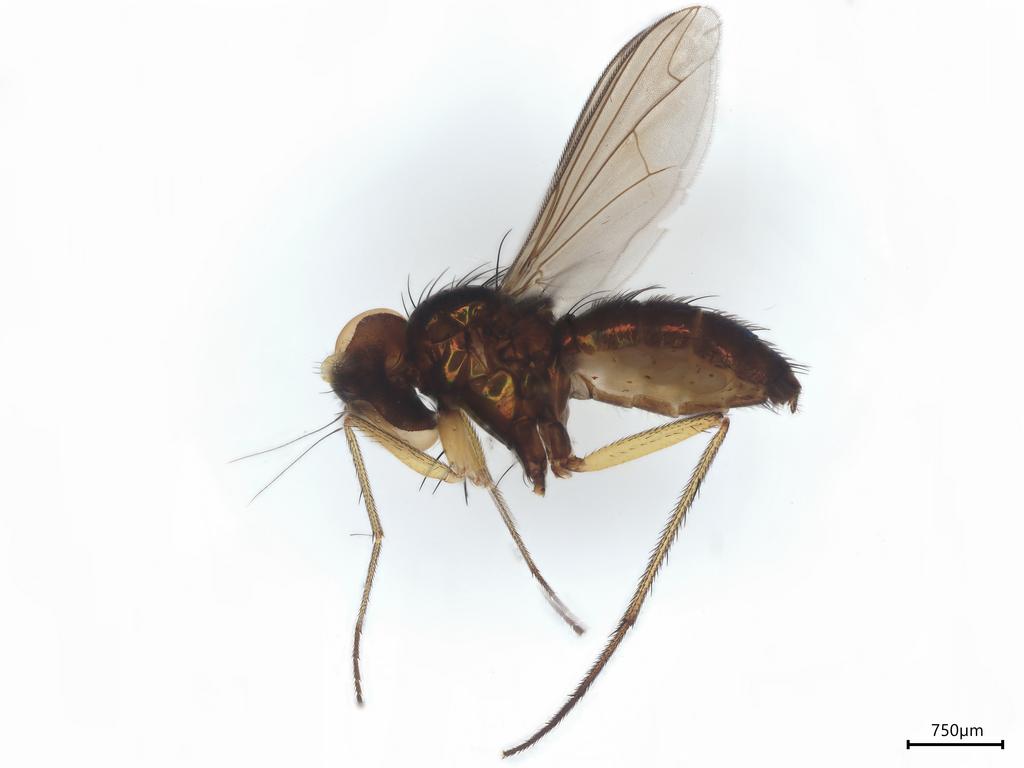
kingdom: Animalia
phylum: Arthropoda
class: Insecta
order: Diptera
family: Dolichopodidae
